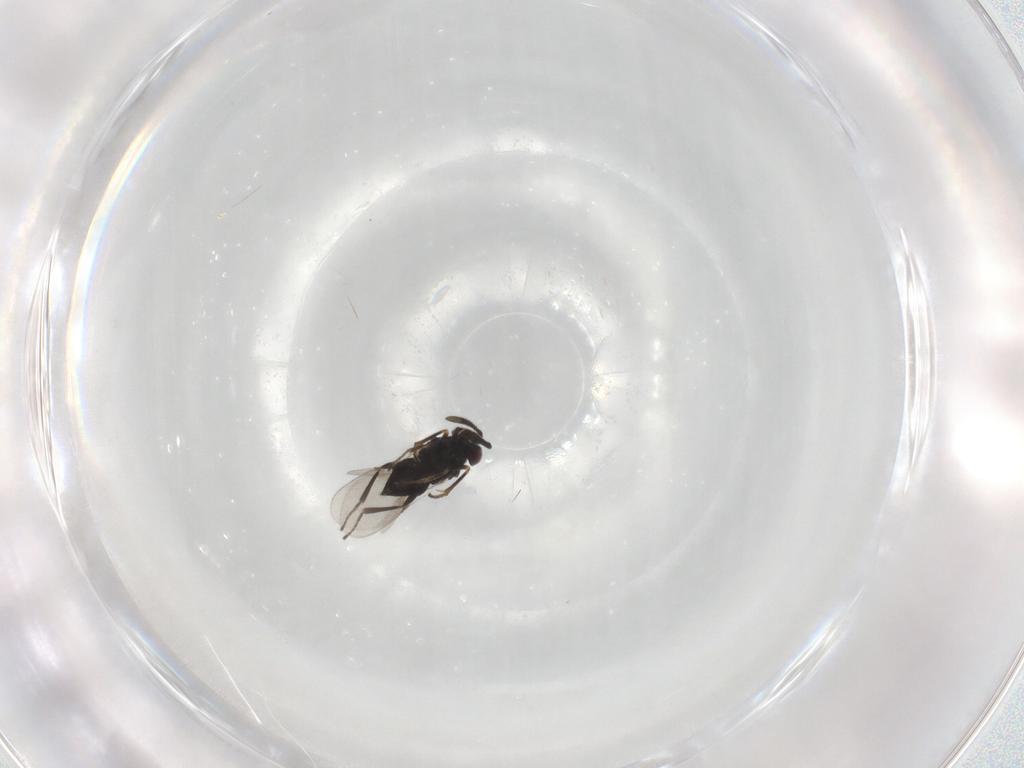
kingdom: Animalia
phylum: Arthropoda
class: Insecta
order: Hymenoptera
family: Encyrtidae
